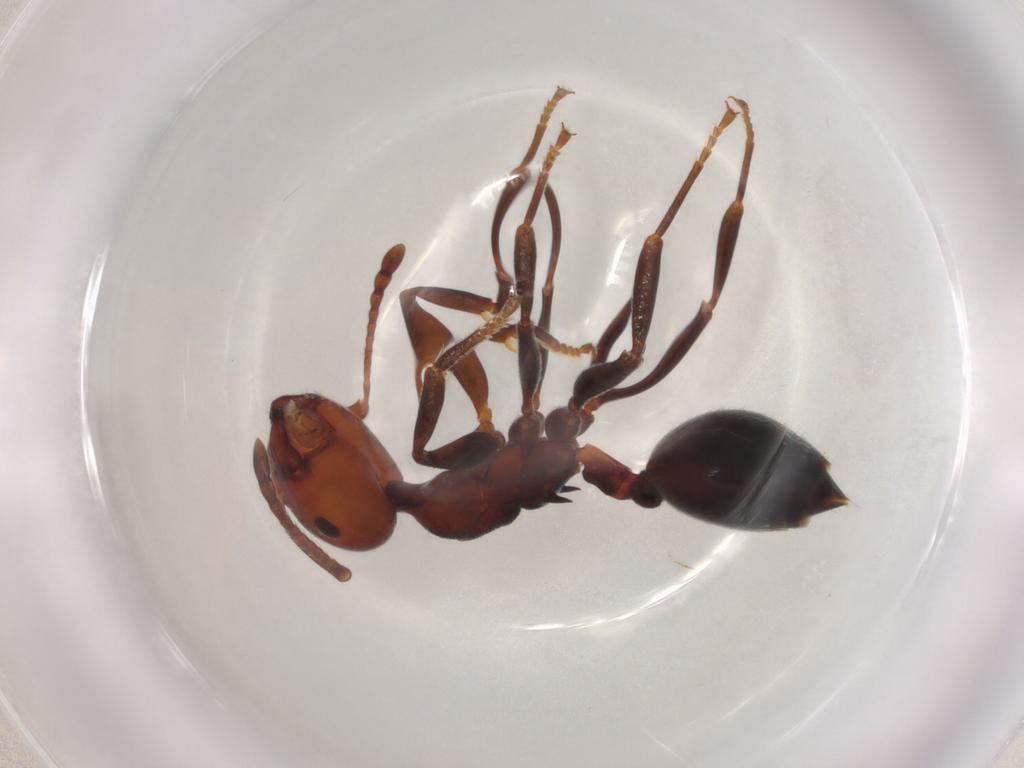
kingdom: Animalia
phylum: Arthropoda
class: Insecta
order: Hymenoptera
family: Formicidae
